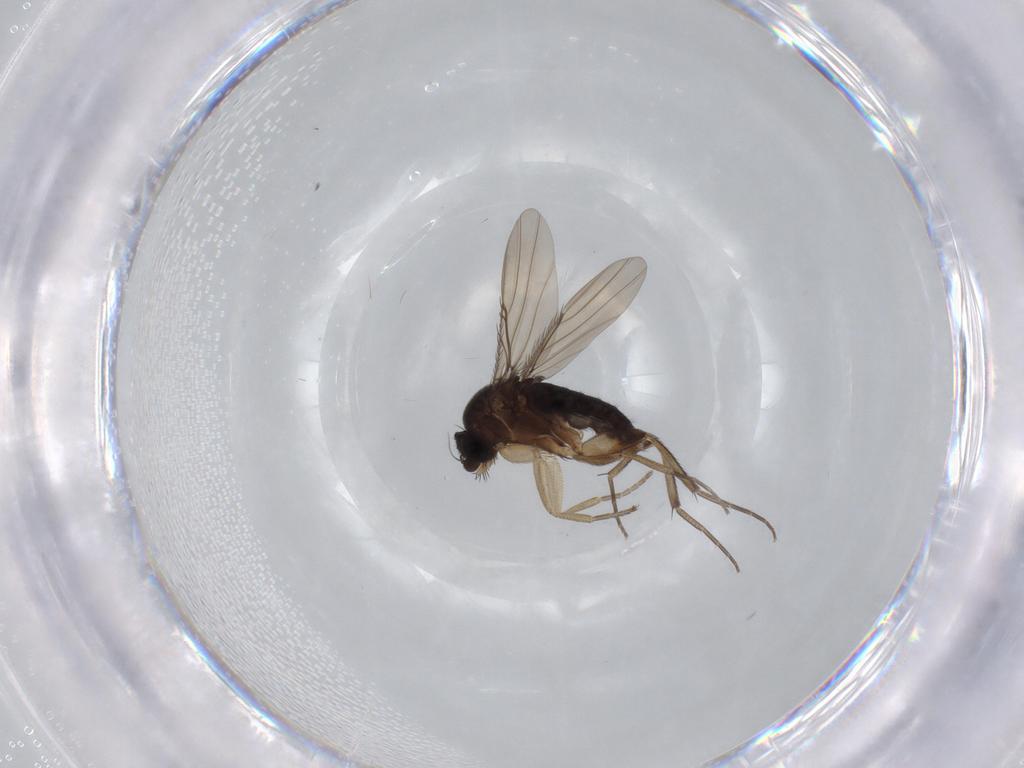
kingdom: Animalia
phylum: Arthropoda
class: Insecta
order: Diptera
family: Phoridae
